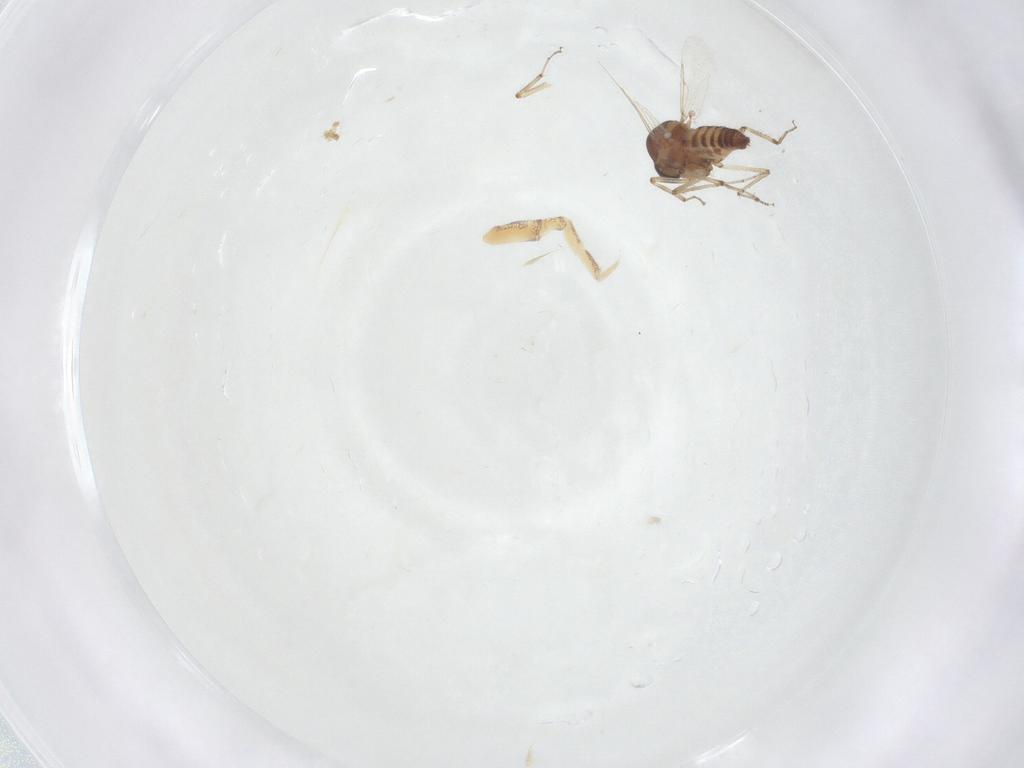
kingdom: Animalia
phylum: Arthropoda
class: Insecta
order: Diptera
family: Ceratopogonidae
